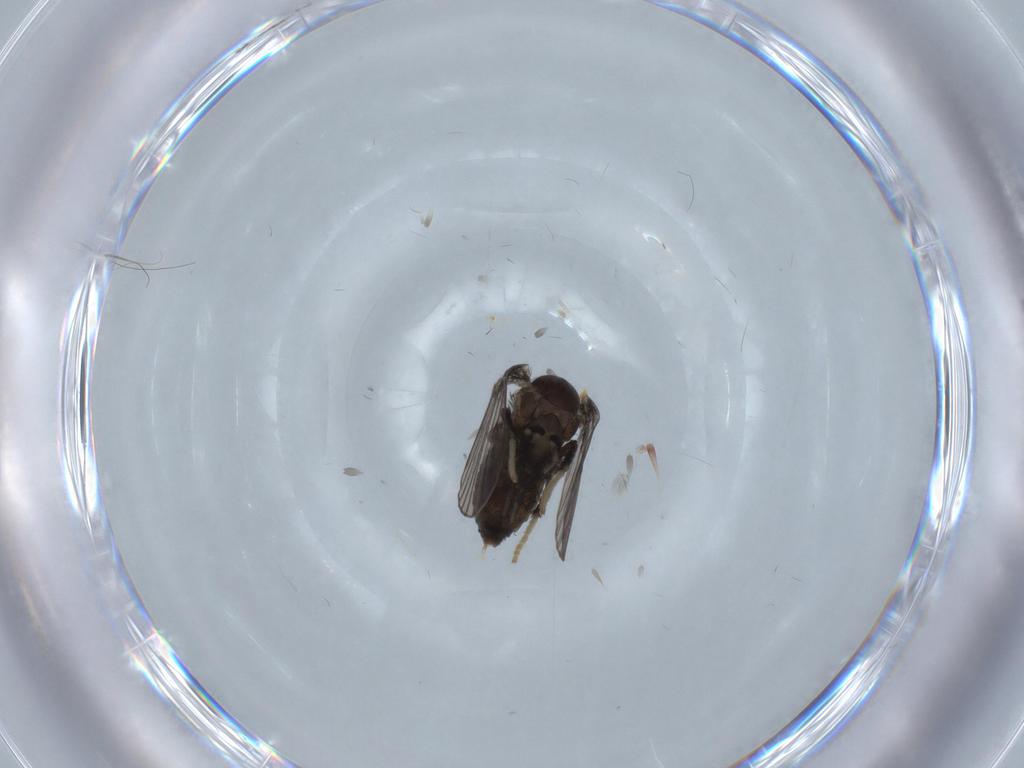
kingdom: Animalia
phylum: Arthropoda
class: Insecta
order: Diptera
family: Psychodidae
